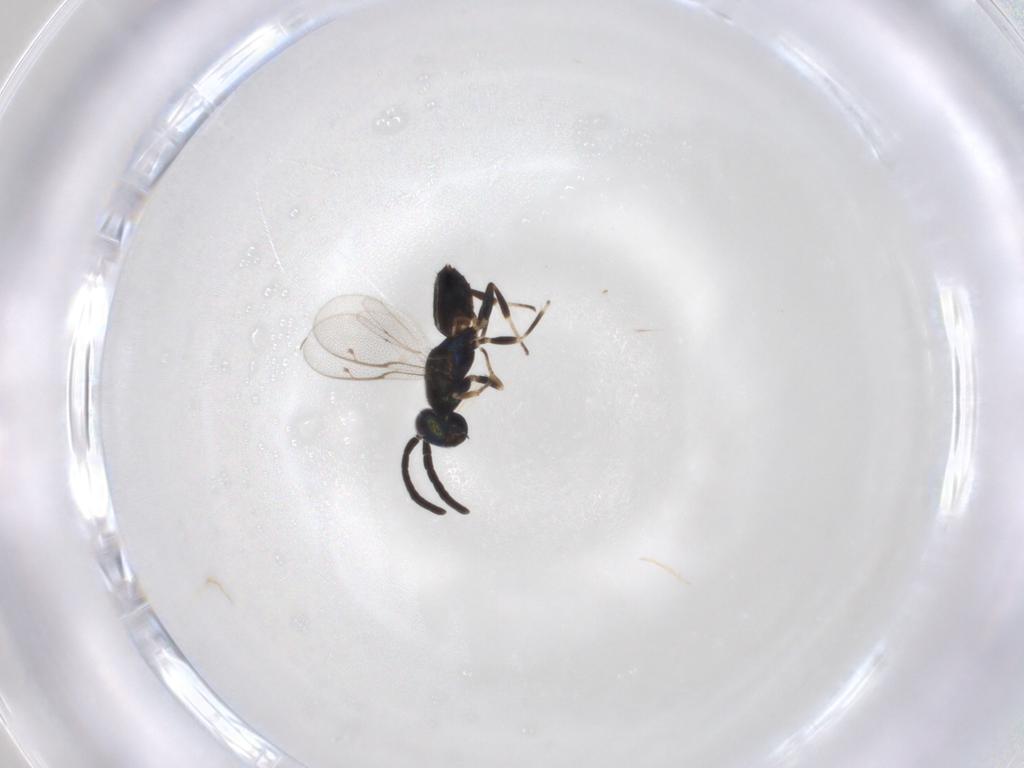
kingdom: Animalia
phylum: Arthropoda
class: Insecta
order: Hymenoptera
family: Eupelmidae
